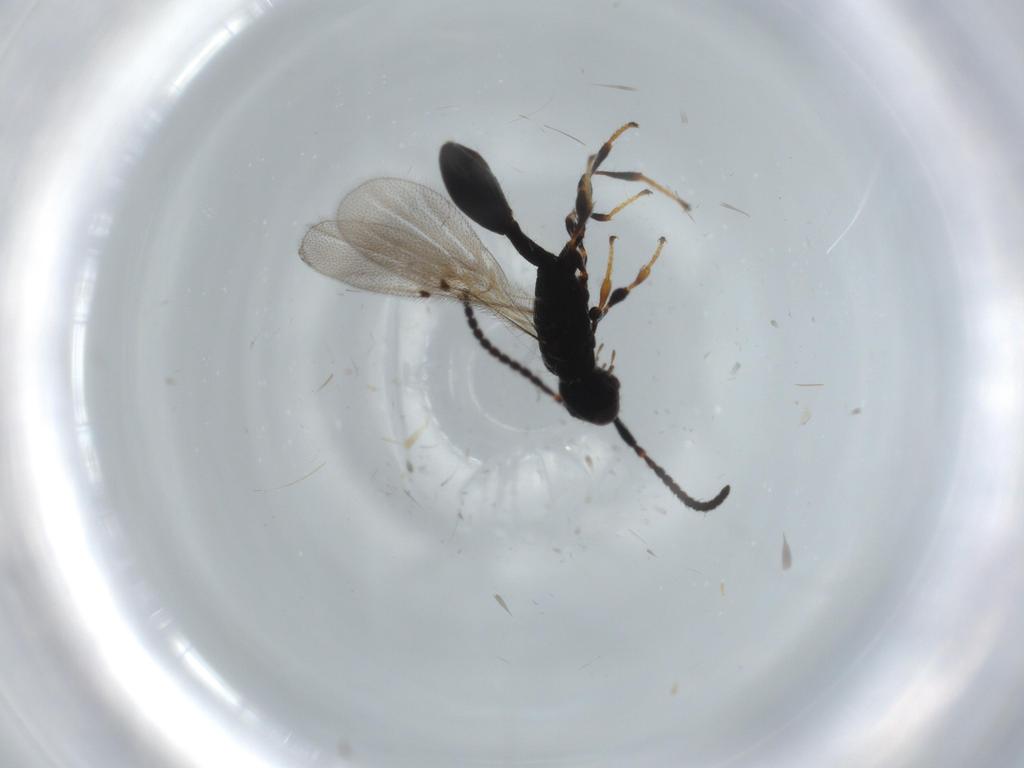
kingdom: Animalia
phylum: Arthropoda
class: Insecta
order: Hymenoptera
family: Diapriidae
